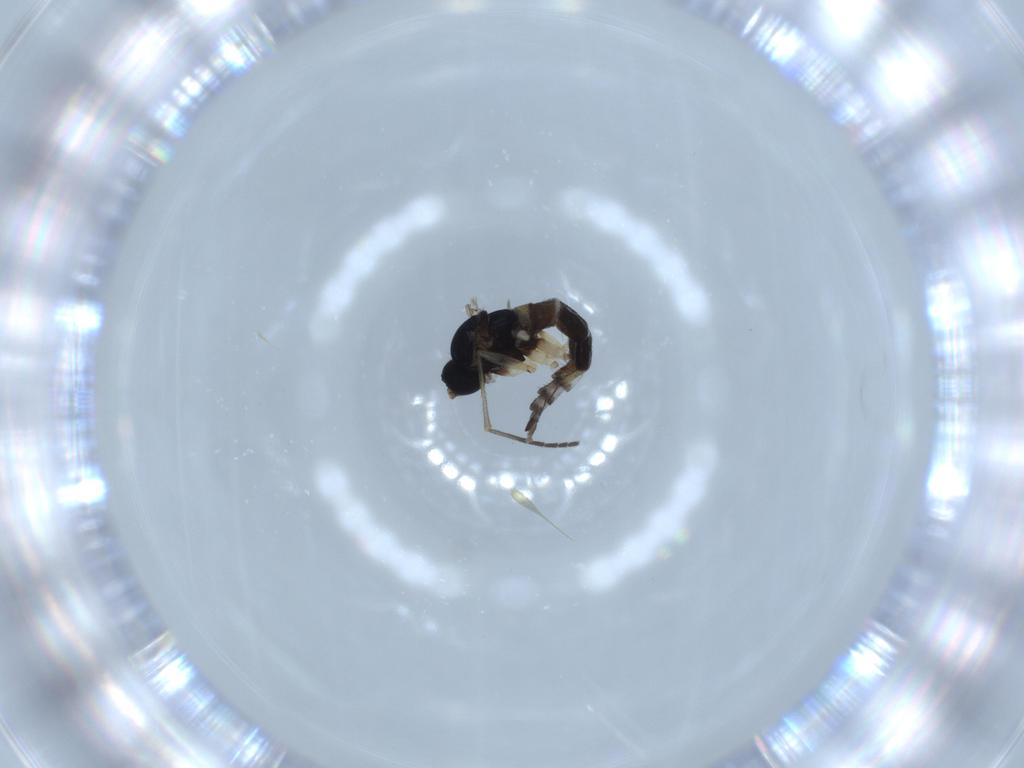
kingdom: Animalia
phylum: Arthropoda
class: Insecta
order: Diptera
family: Sciaridae
